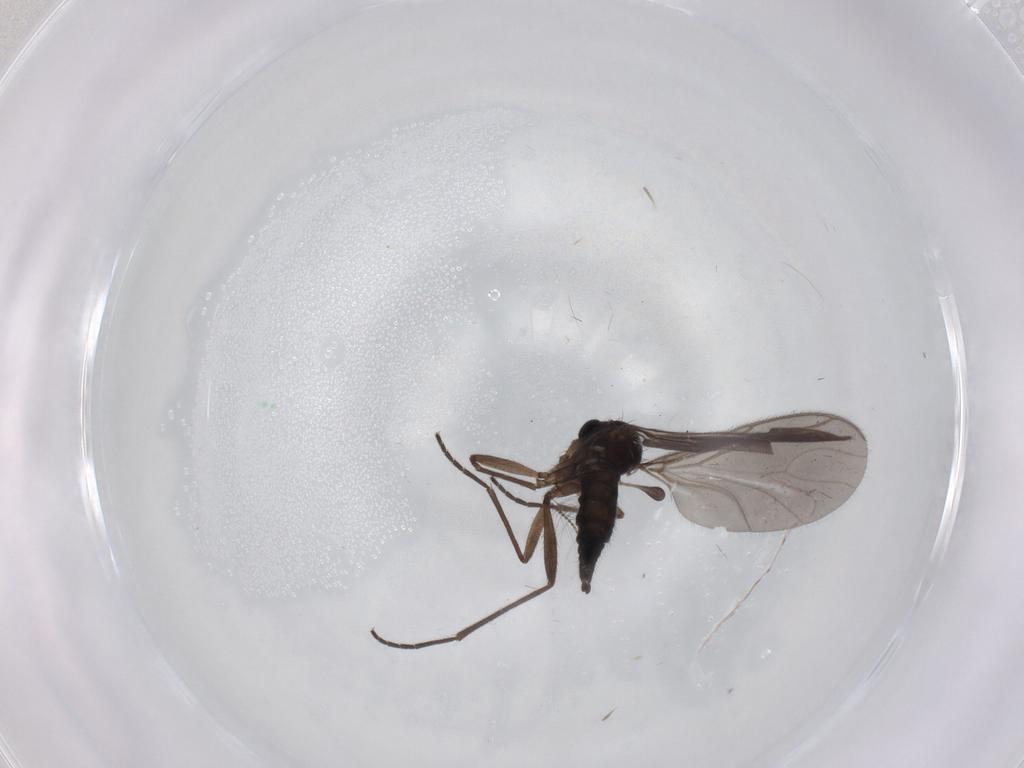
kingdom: Animalia
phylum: Arthropoda
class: Insecta
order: Diptera
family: Sciaridae
